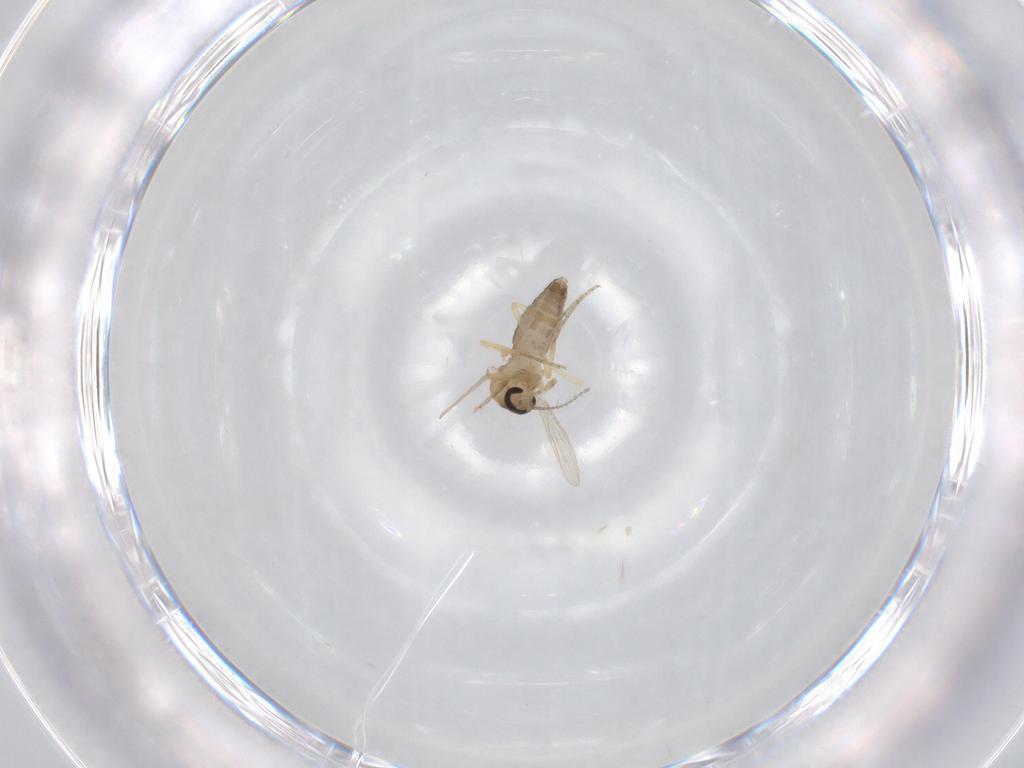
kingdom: Animalia
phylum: Arthropoda
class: Insecta
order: Diptera
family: Ceratopogonidae
